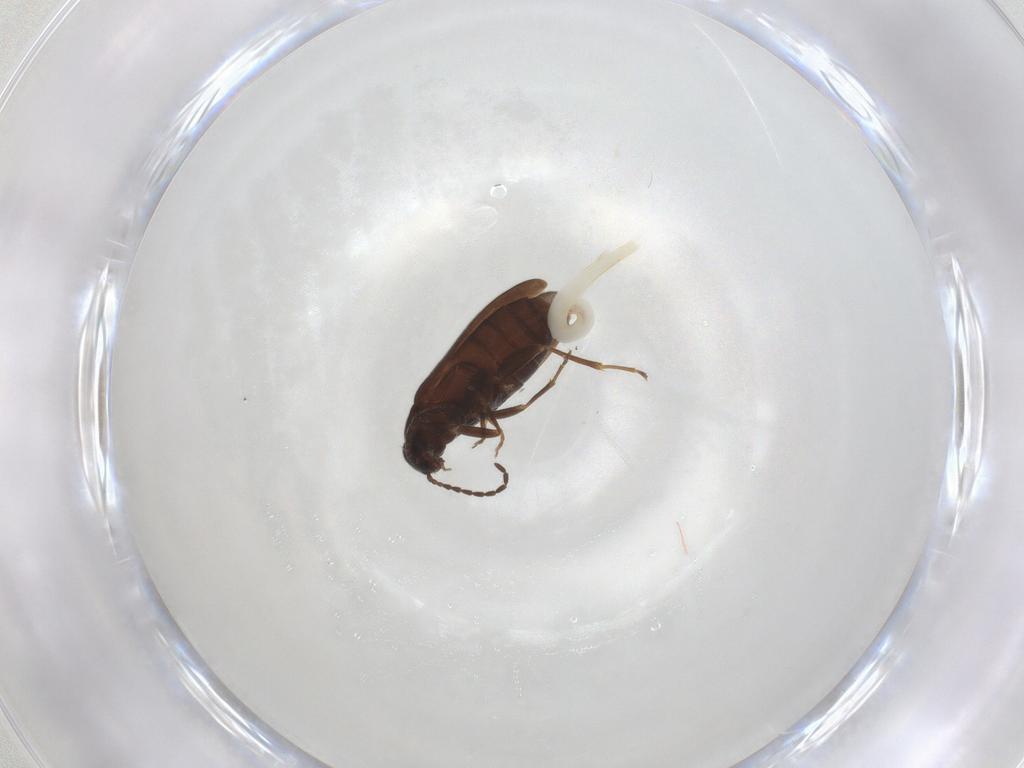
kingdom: Animalia
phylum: Arthropoda
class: Insecta
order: Coleoptera
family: Scraptiidae
